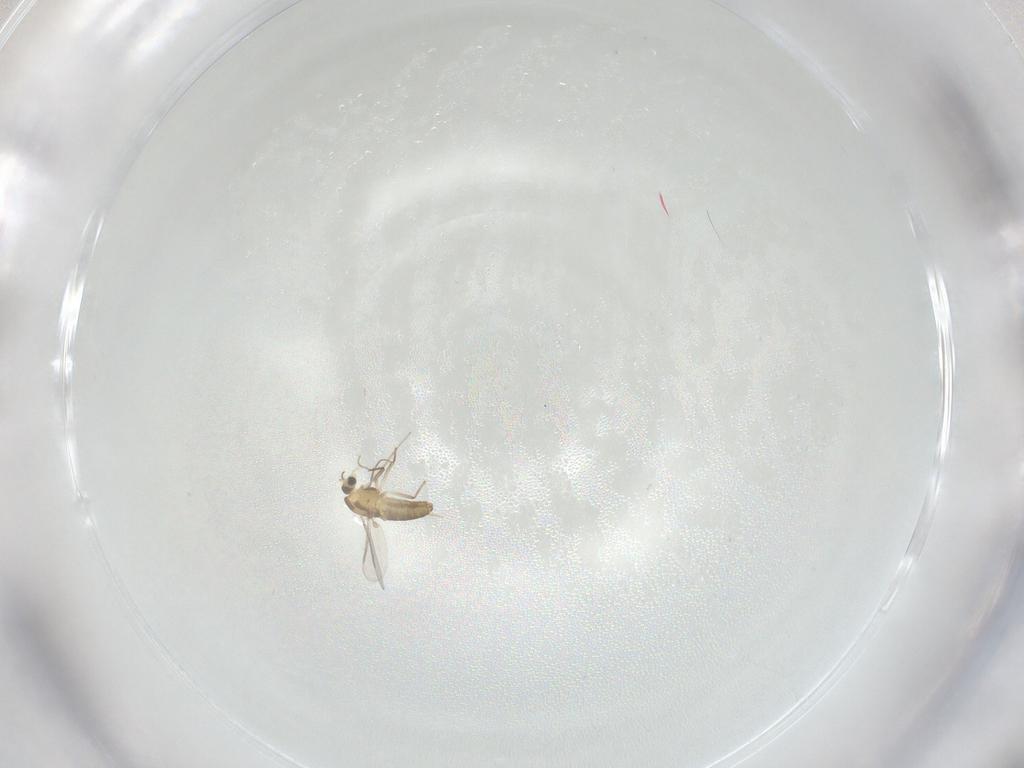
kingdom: Animalia
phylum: Arthropoda
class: Insecta
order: Diptera
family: Chironomidae
